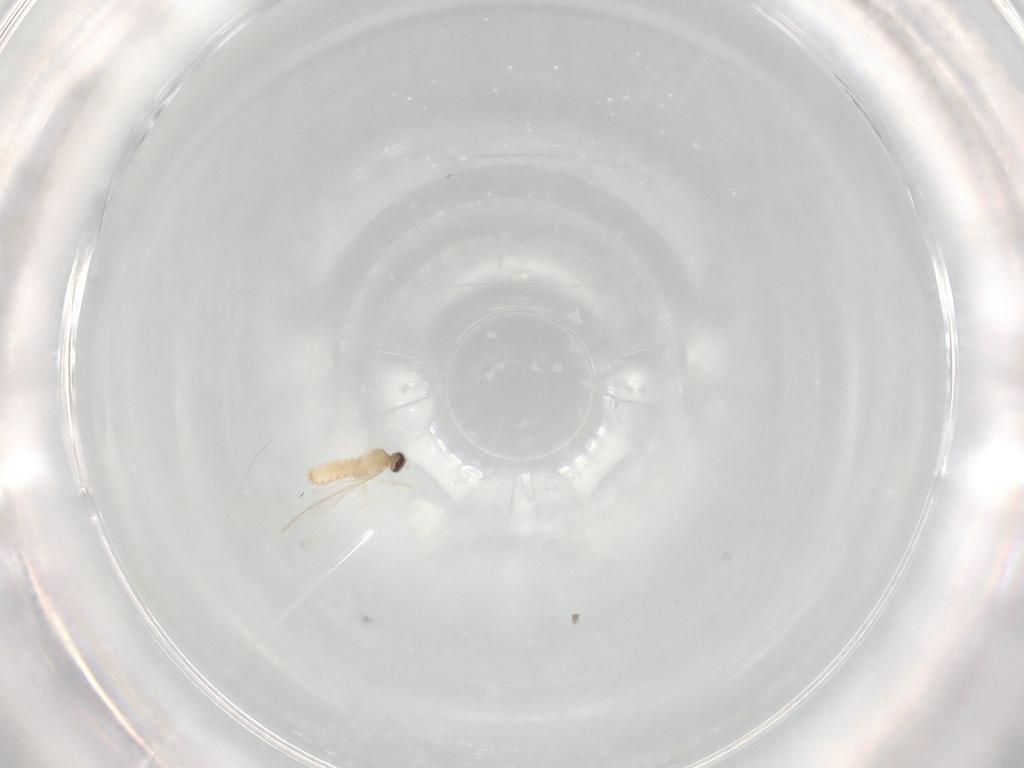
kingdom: Animalia
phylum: Arthropoda
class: Insecta
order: Diptera
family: Cecidomyiidae
